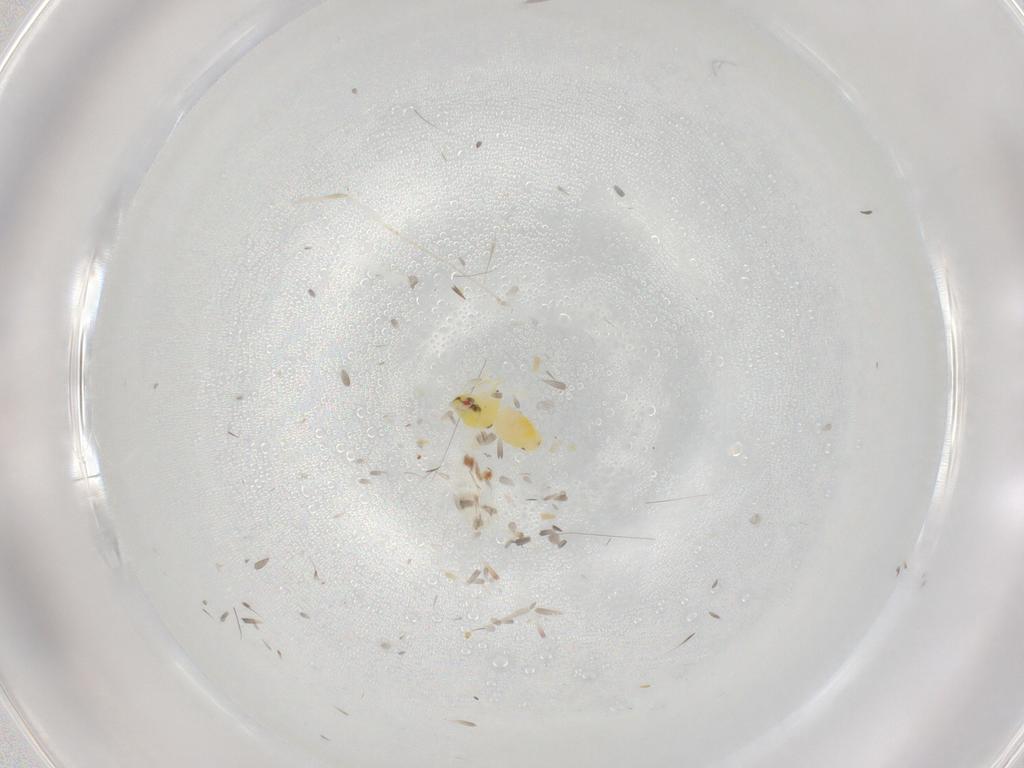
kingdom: Animalia
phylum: Arthropoda
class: Insecta
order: Hemiptera
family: Aleyrodidae
